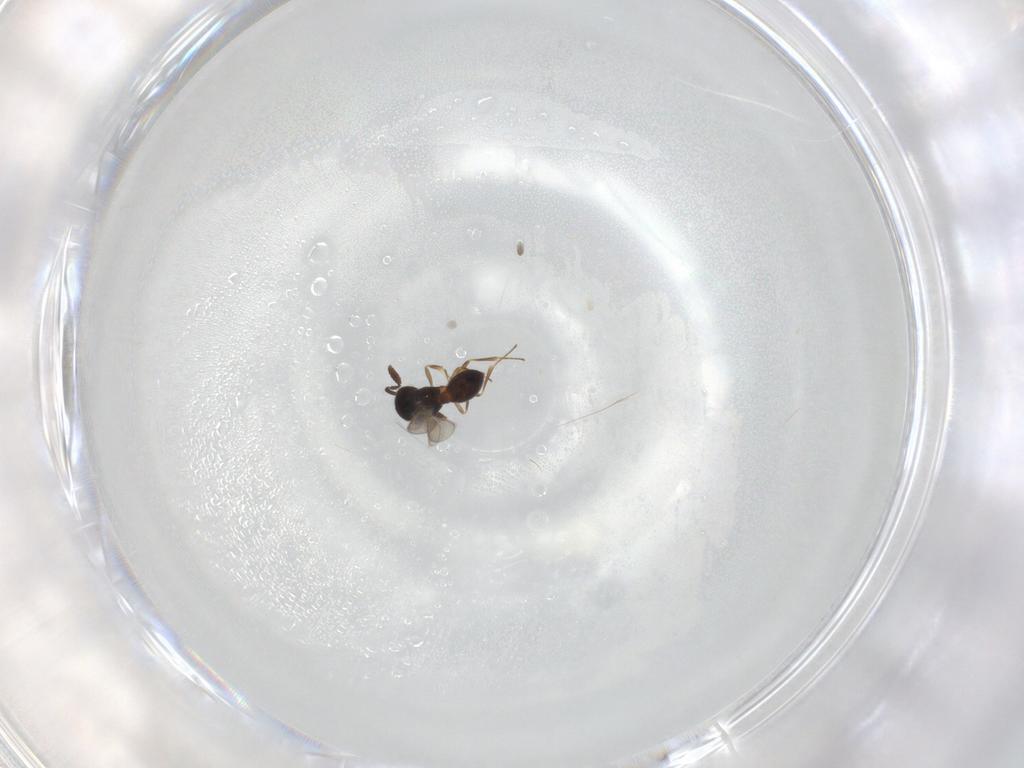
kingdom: Animalia
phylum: Arthropoda
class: Insecta
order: Hymenoptera
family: Scelionidae
